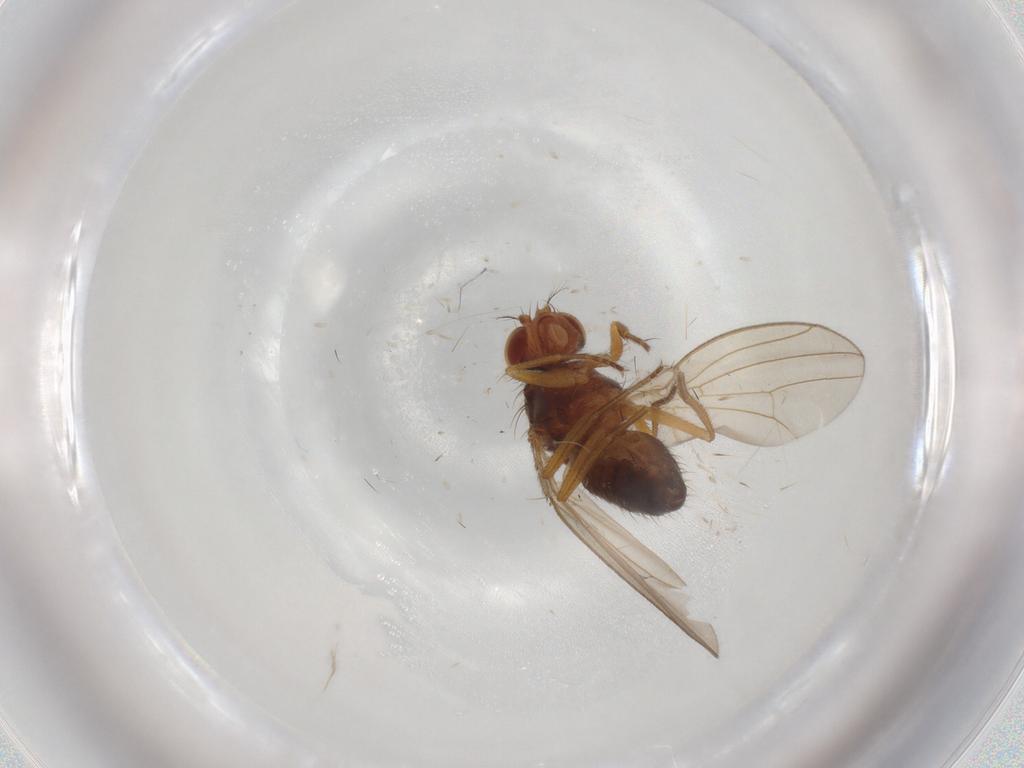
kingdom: Animalia
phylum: Arthropoda
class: Insecta
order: Diptera
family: Drosophilidae
